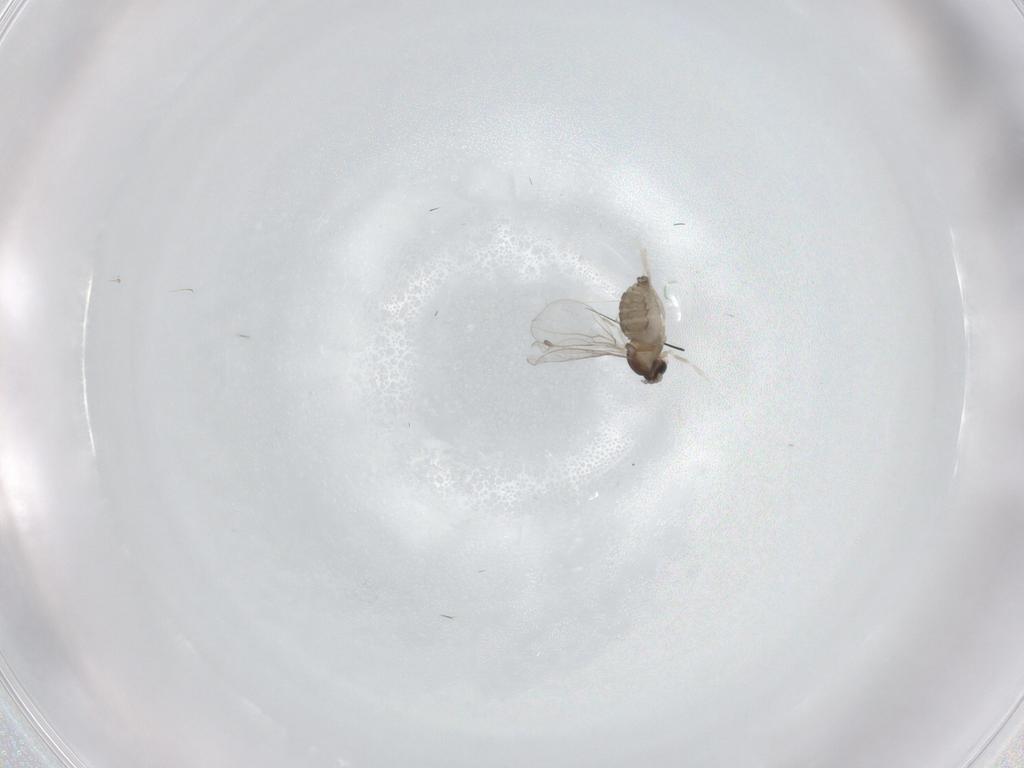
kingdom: Animalia
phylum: Arthropoda
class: Insecta
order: Diptera
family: Cecidomyiidae
